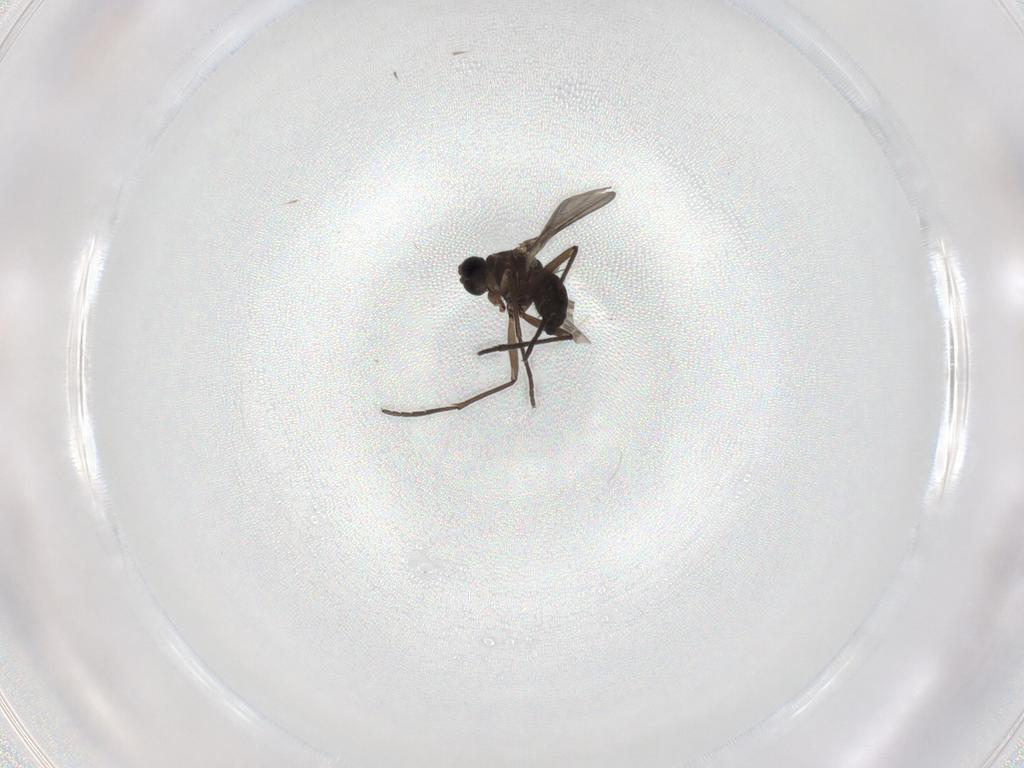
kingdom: Animalia
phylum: Arthropoda
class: Insecta
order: Diptera
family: Sciaridae
